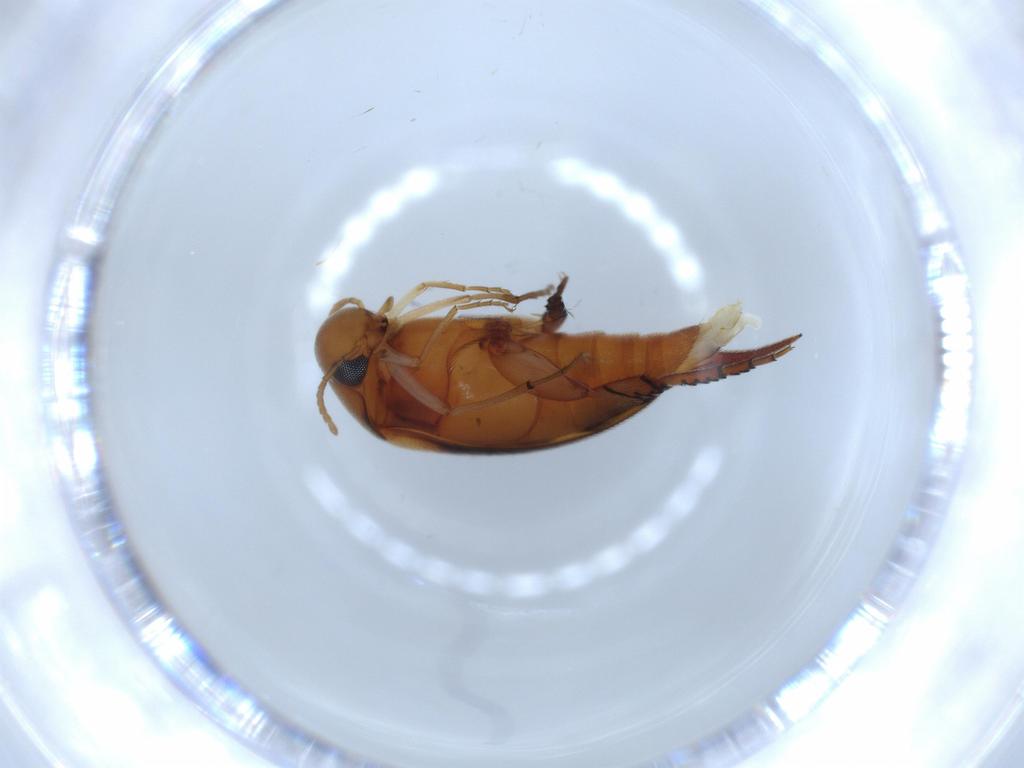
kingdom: Animalia
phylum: Arthropoda
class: Insecta
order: Coleoptera
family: Mordellidae
